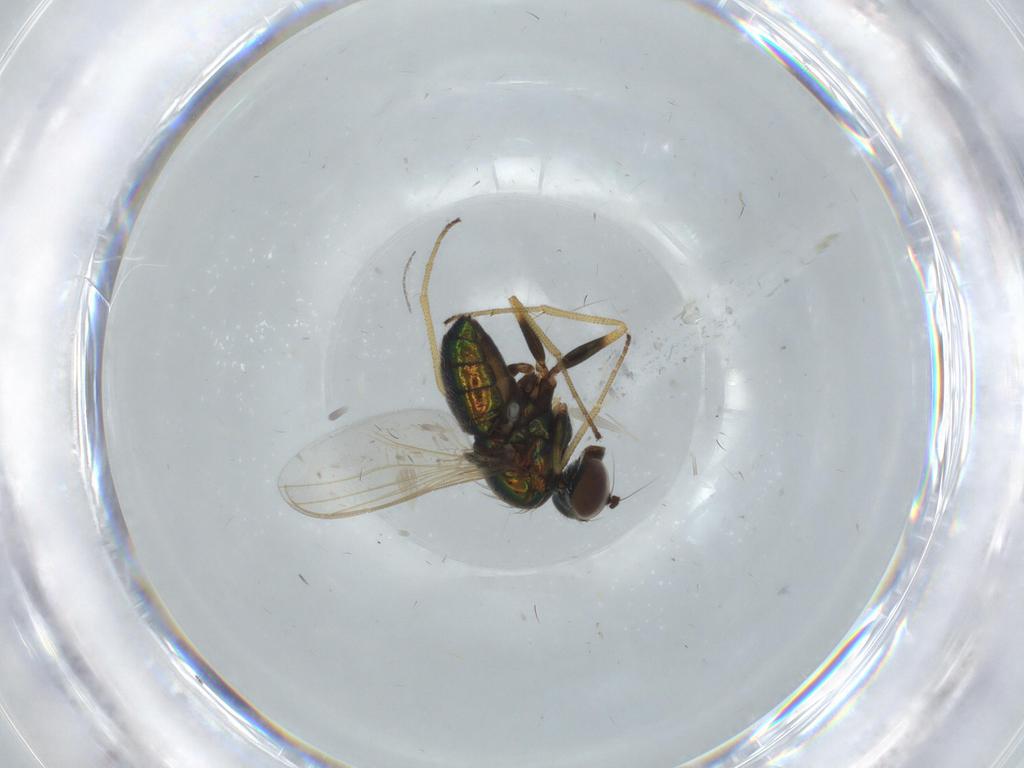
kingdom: Animalia
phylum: Arthropoda
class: Insecta
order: Diptera
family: Dolichopodidae
